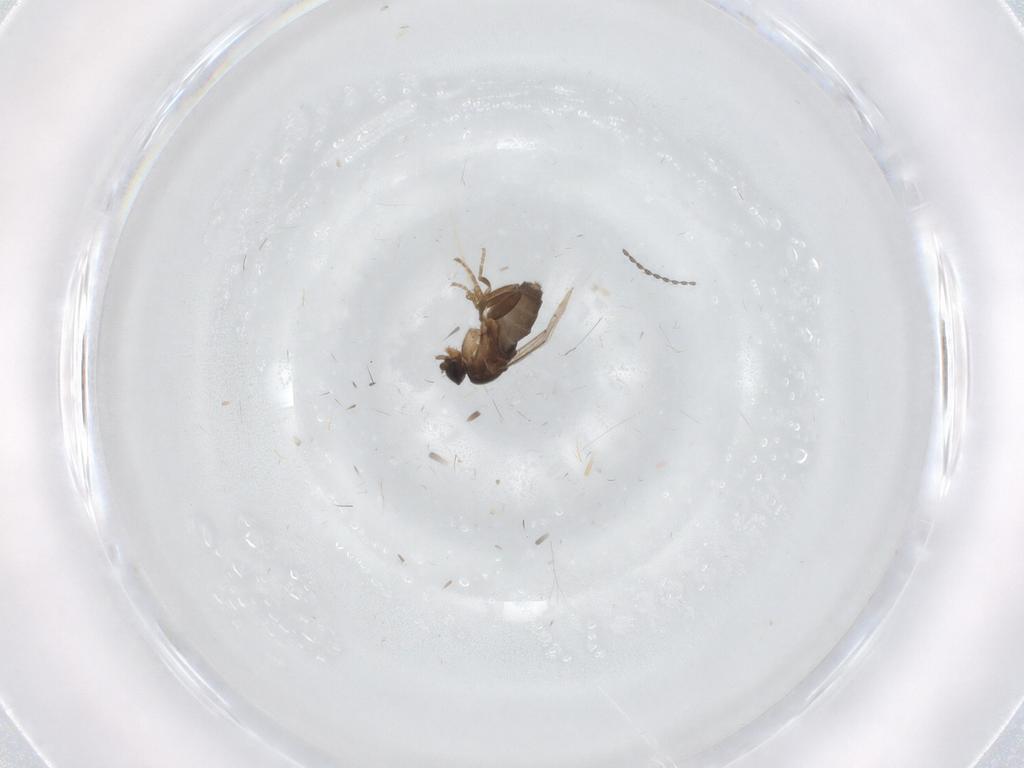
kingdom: Animalia
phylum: Arthropoda
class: Insecta
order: Diptera
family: Phoridae
